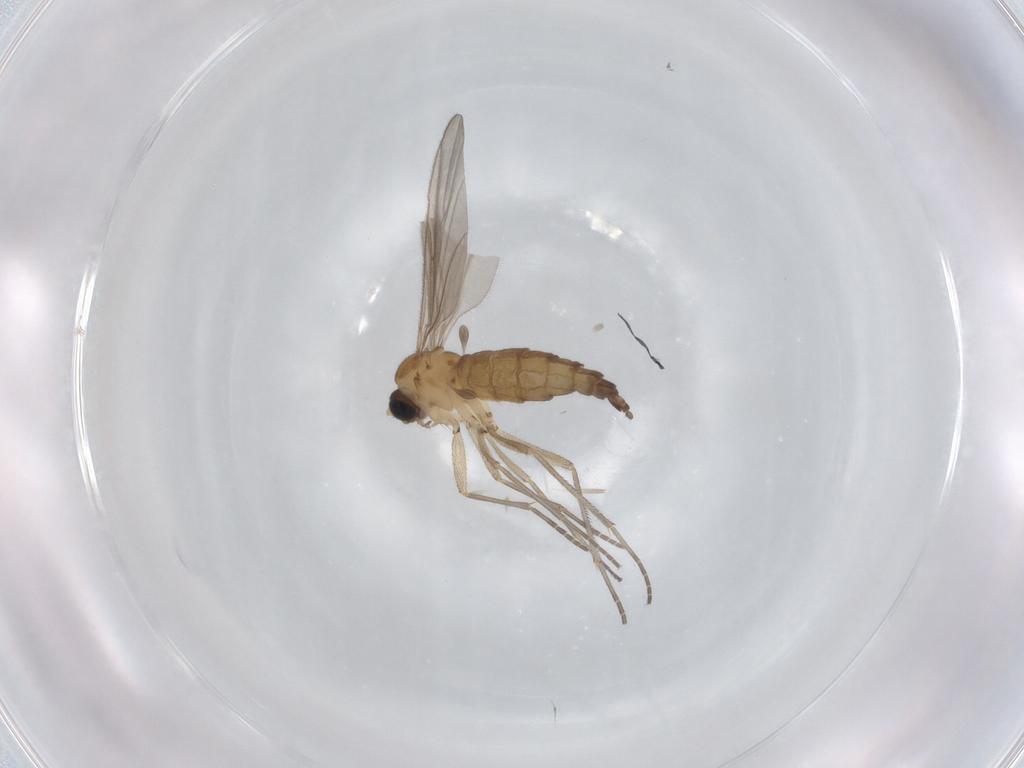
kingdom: Animalia
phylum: Arthropoda
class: Insecta
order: Diptera
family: Sciaridae
